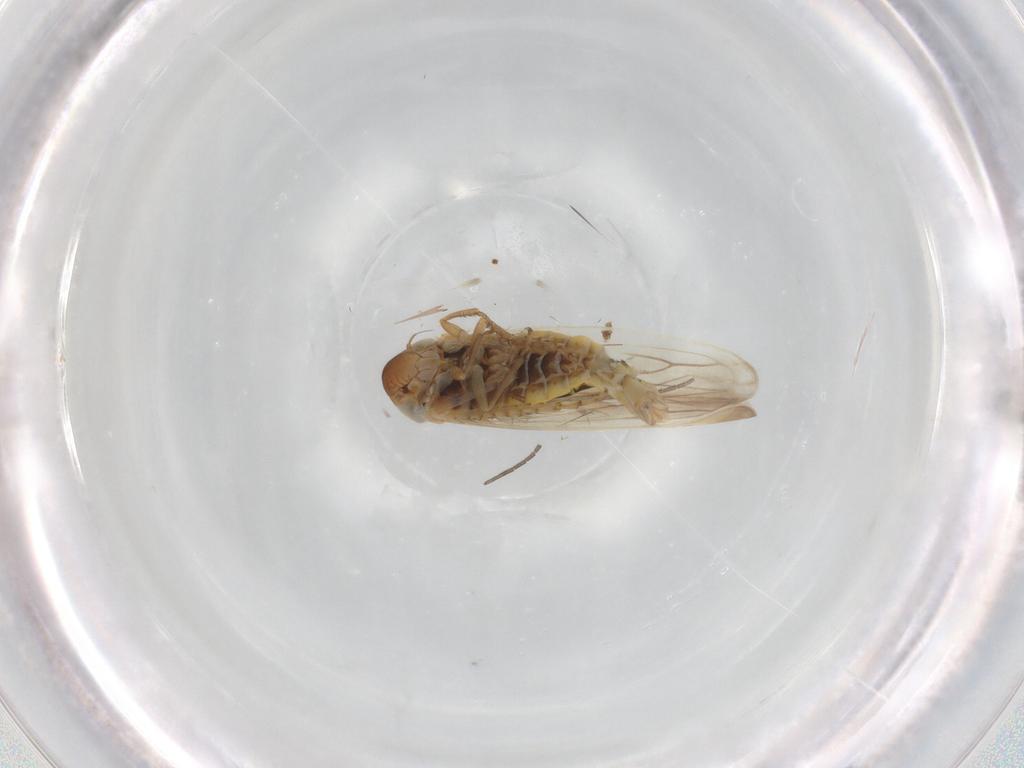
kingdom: Animalia
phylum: Arthropoda
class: Insecta
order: Hemiptera
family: Cicadellidae
